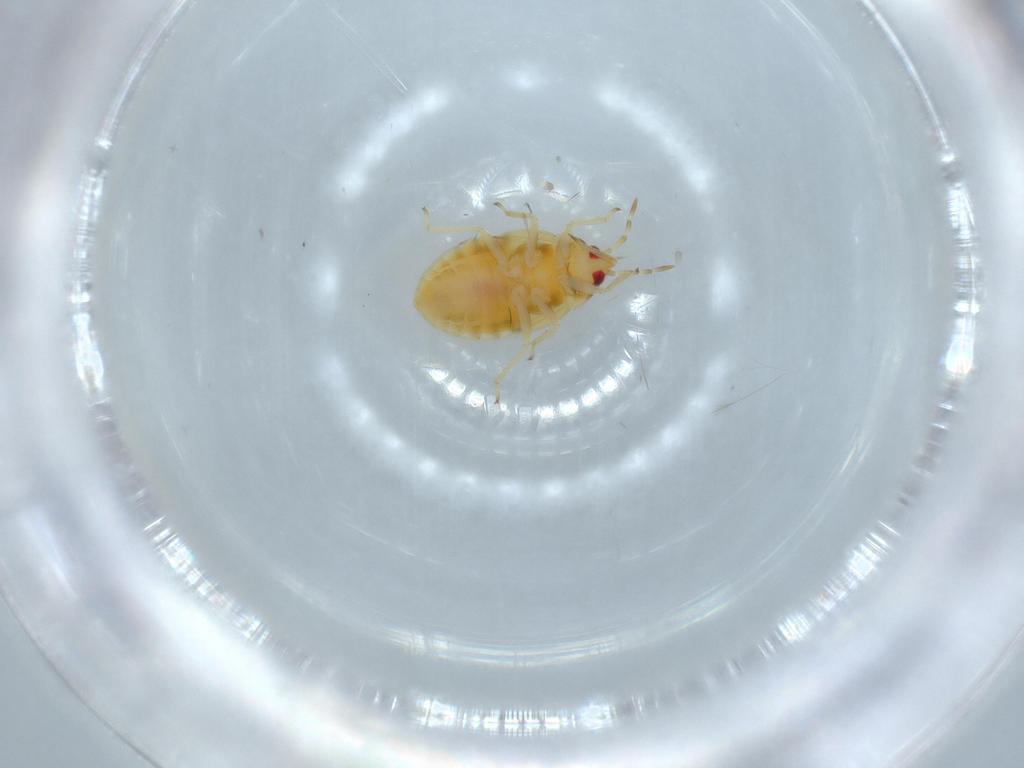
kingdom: Animalia
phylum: Arthropoda
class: Insecta
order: Hemiptera
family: Anthocoridae
